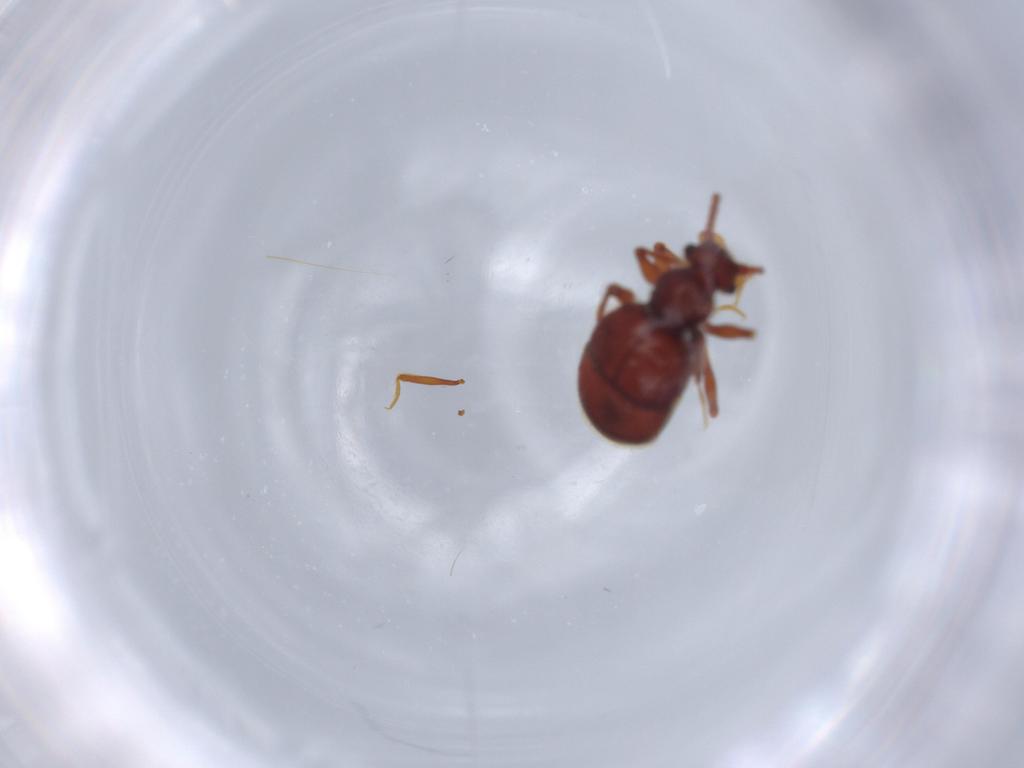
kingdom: Animalia
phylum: Arthropoda
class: Insecta
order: Coleoptera
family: Staphylinidae
